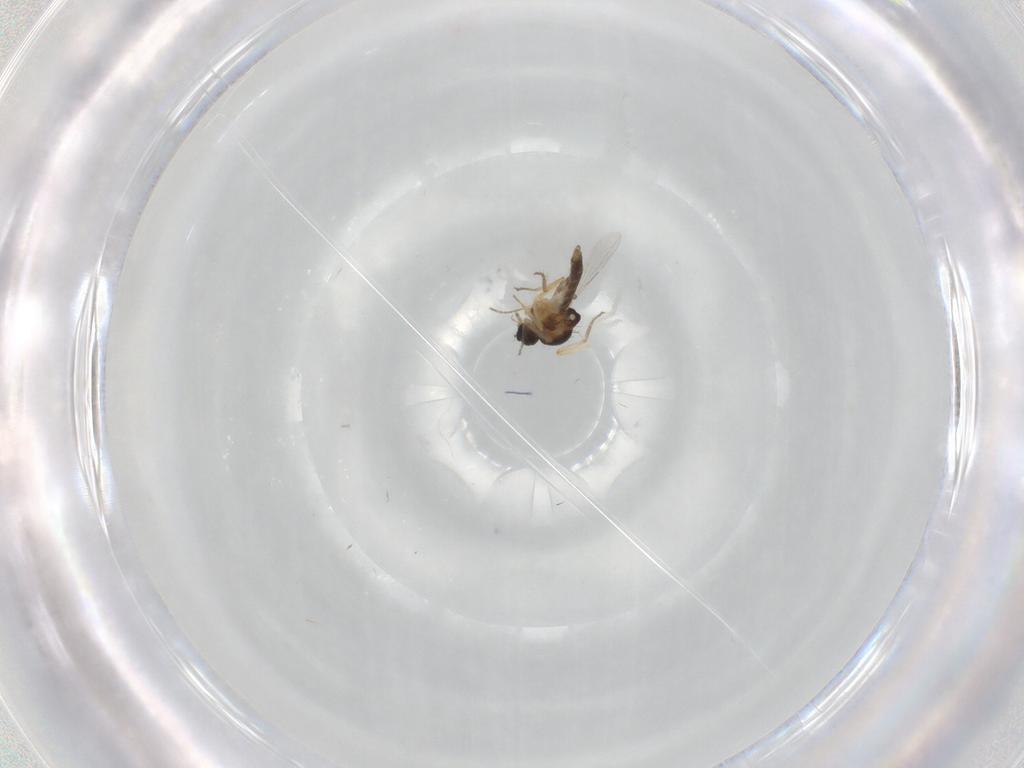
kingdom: Animalia
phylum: Arthropoda
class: Insecta
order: Diptera
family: Ceratopogonidae
